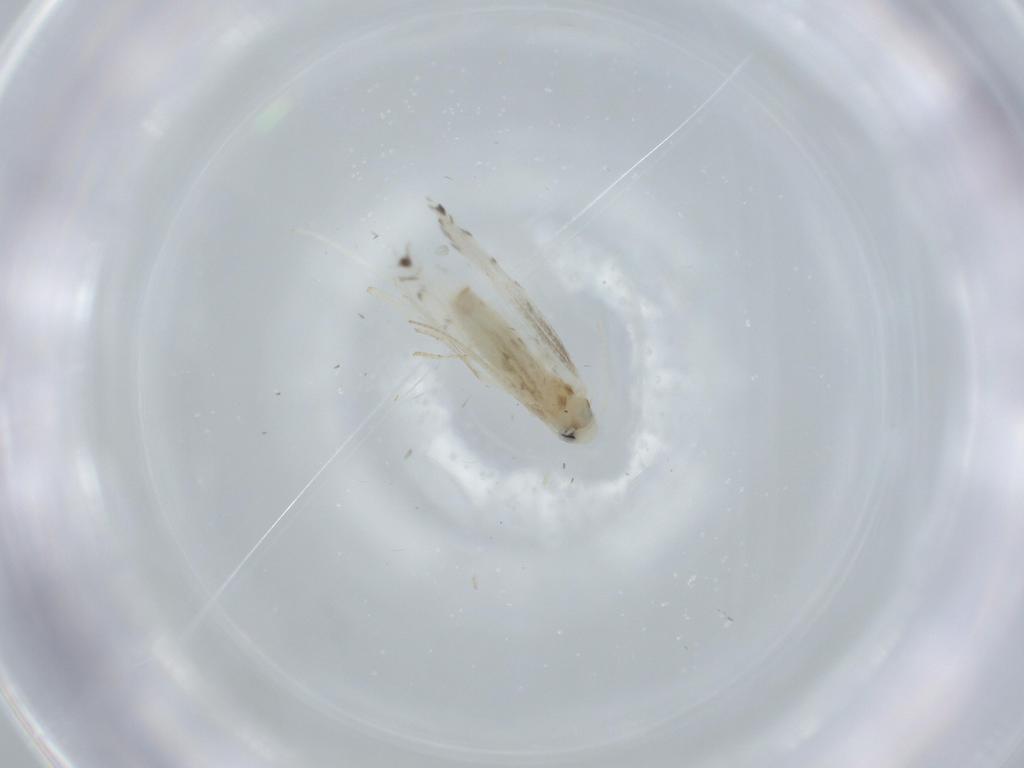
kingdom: Animalia
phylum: Arthropoda
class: Insecta
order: Lepidoptera
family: Gracillariidae
